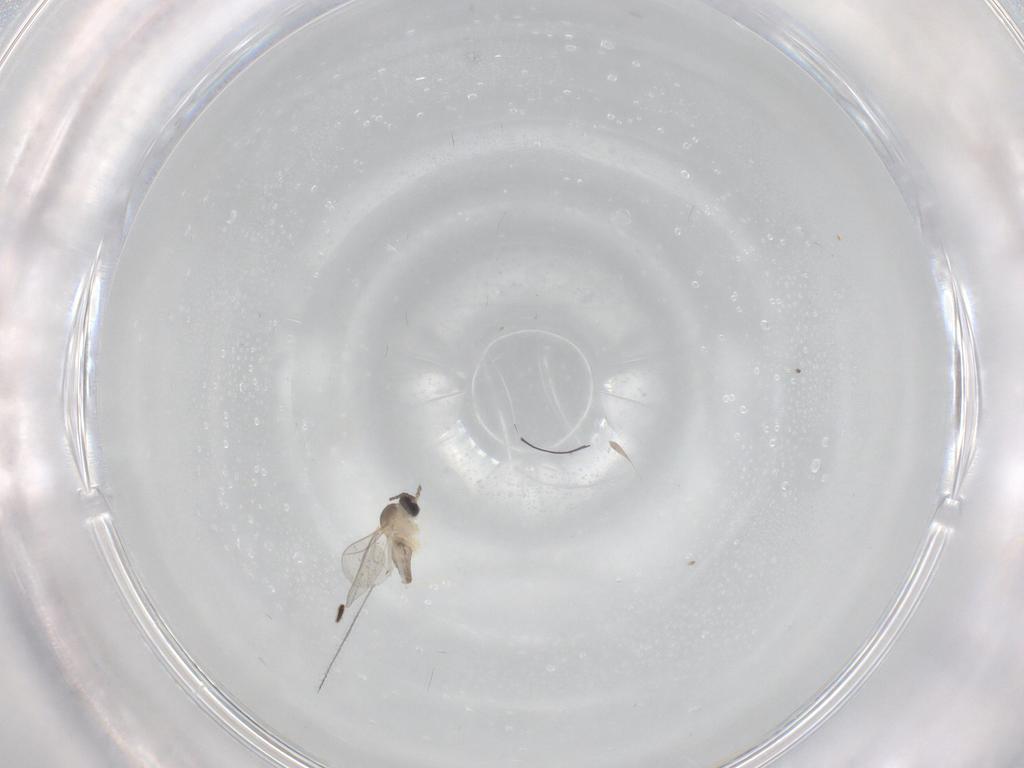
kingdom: Animalia
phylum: Arthropoda
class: Insecta
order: Diptera
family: Cecidomyiidae
